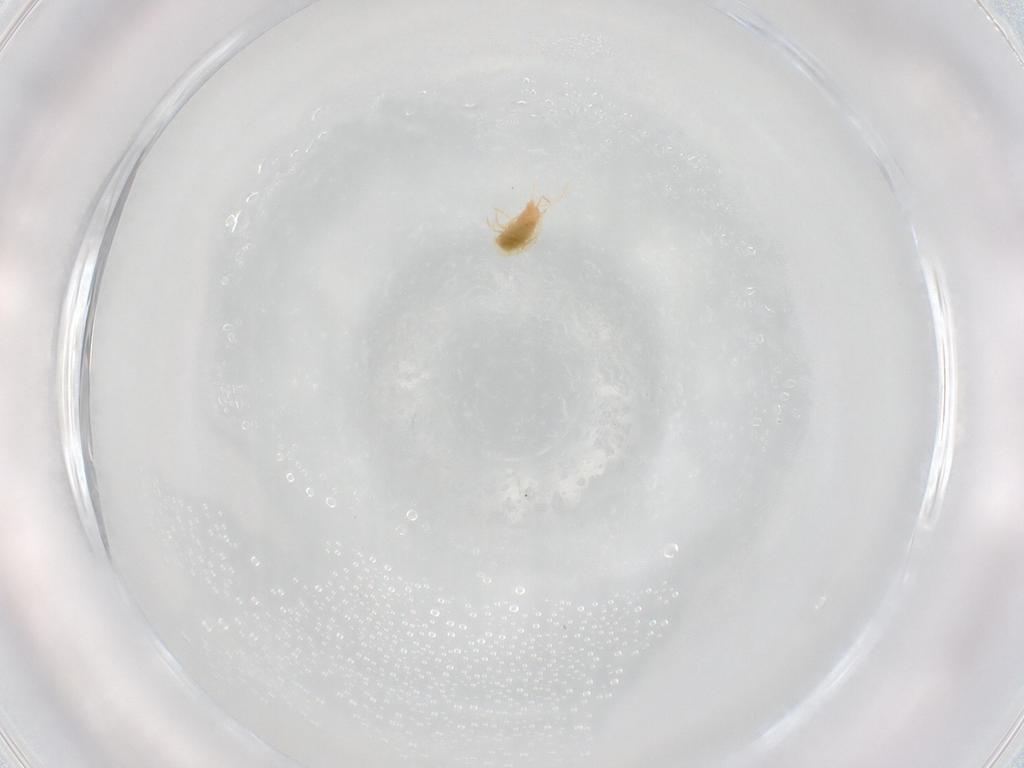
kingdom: Animalia
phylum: Arthropoda
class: Arachnida
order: Trombidiformes
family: Tetranychidae
